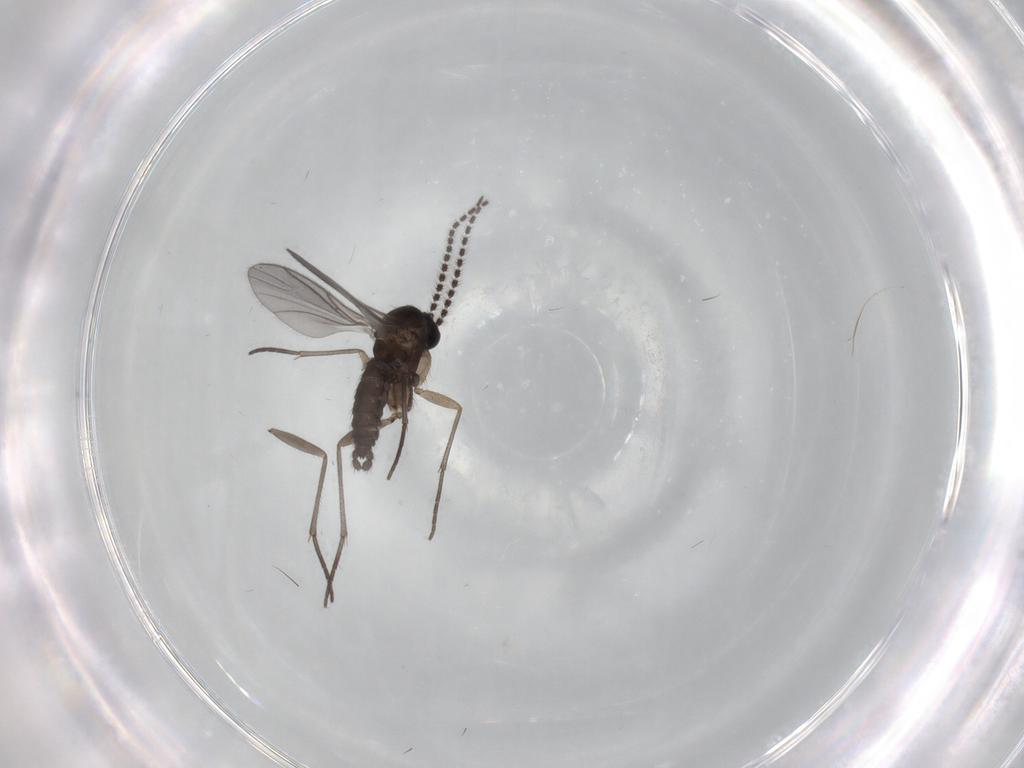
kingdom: Animalia
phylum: Arthropoda
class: Insecta
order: Diptera
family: Sciaridae
